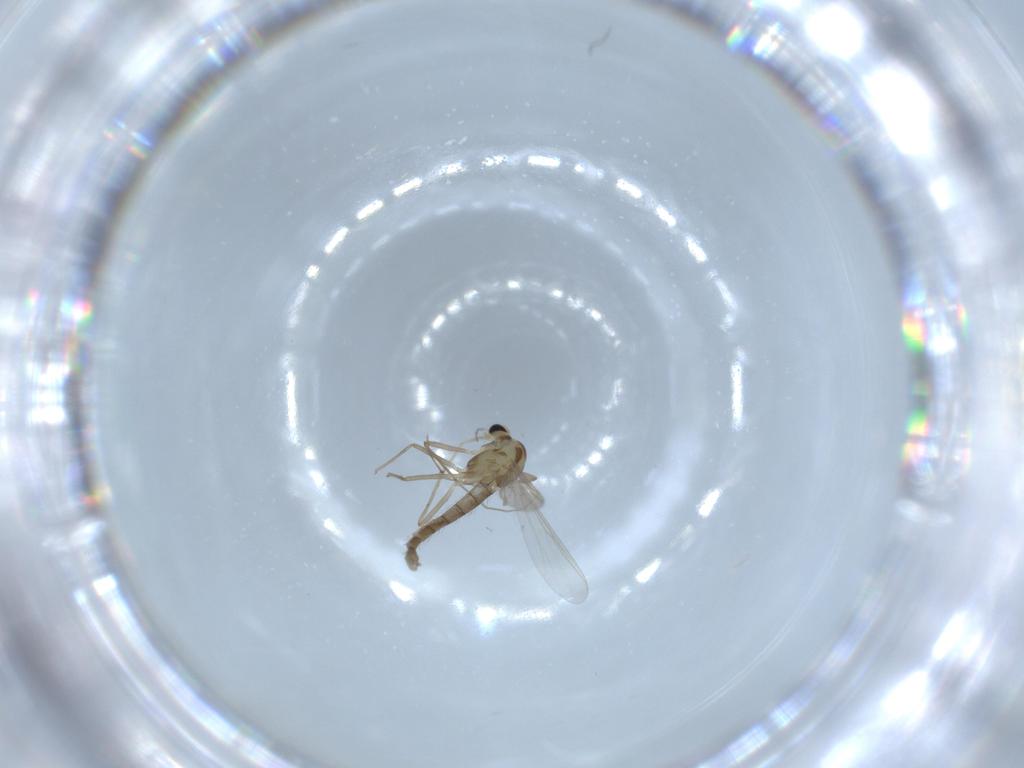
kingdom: Animalia
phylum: Arthropoda
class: Insecta
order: Diptera
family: Chironomidae
